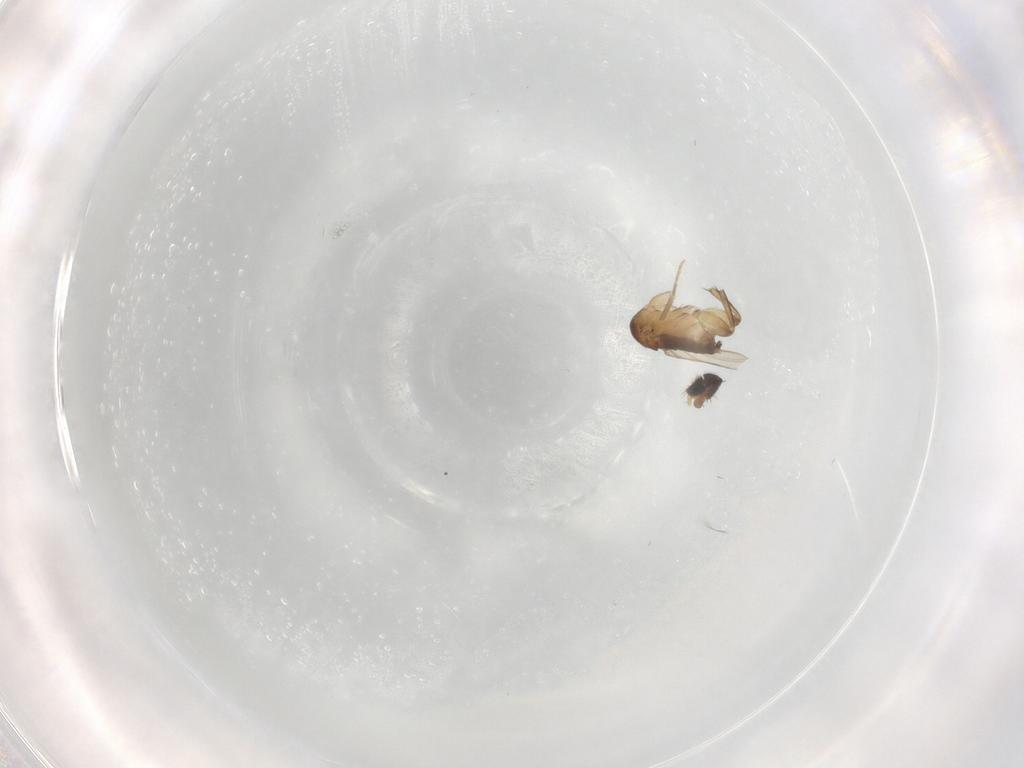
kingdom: Animalia
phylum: Arthropoda
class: Insecta
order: Diptera
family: Phoridae
